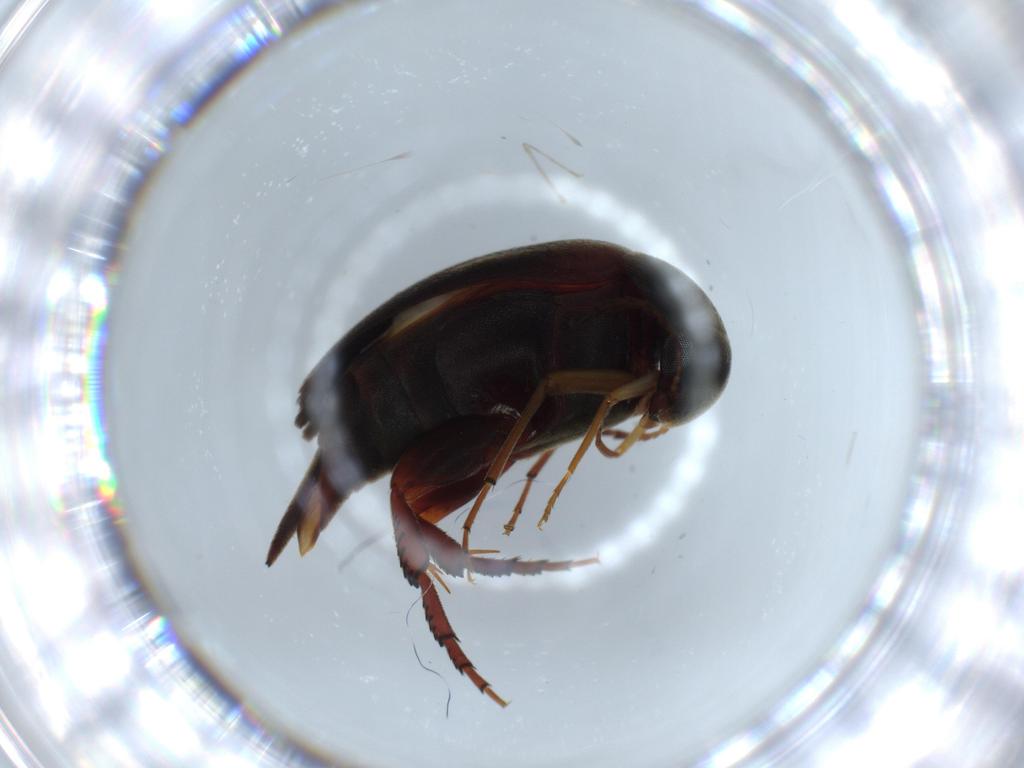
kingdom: Animalia
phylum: Arthropoda
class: Insecta
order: Coleoptera
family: Mordellidae
